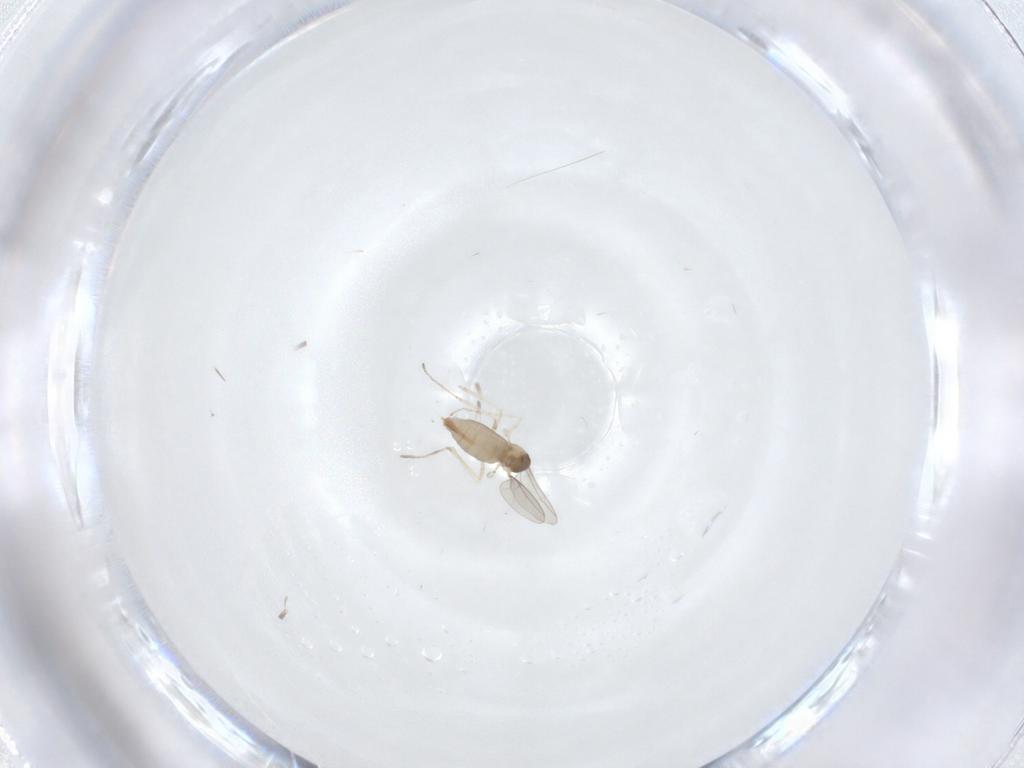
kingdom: Animalia
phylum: Arthropoda
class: Insecta
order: Diptera
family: Cecidomyiidae
